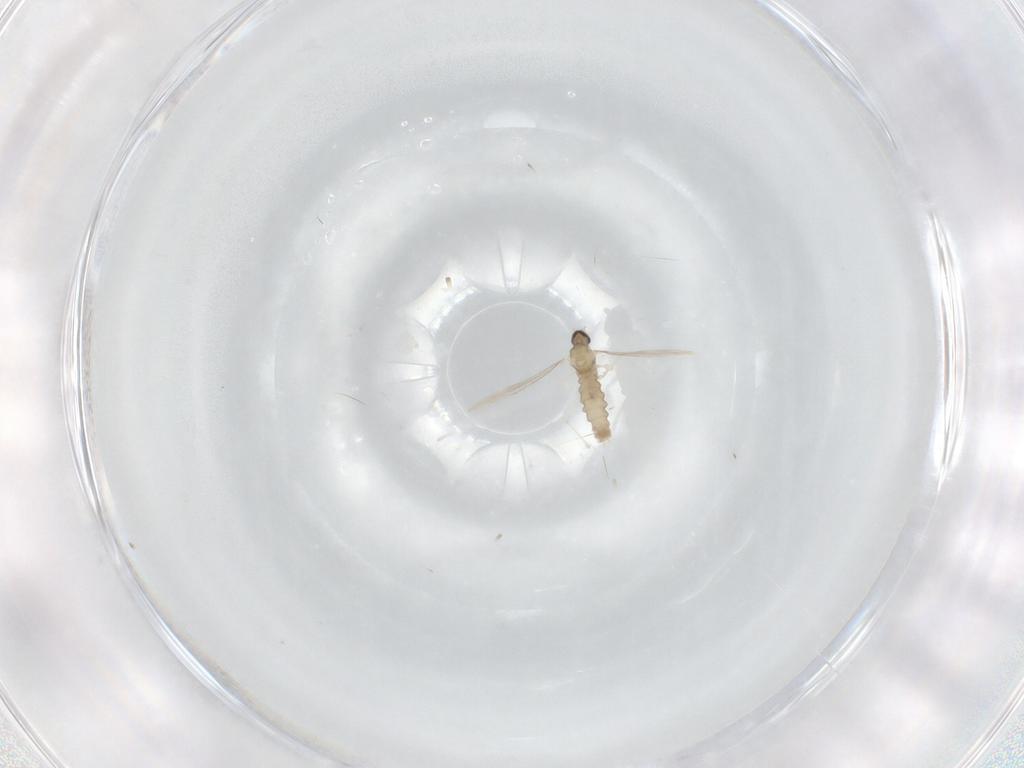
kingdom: Animalia
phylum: Arthropoda
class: Insecta
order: Diptera
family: Cecidomyiidae
